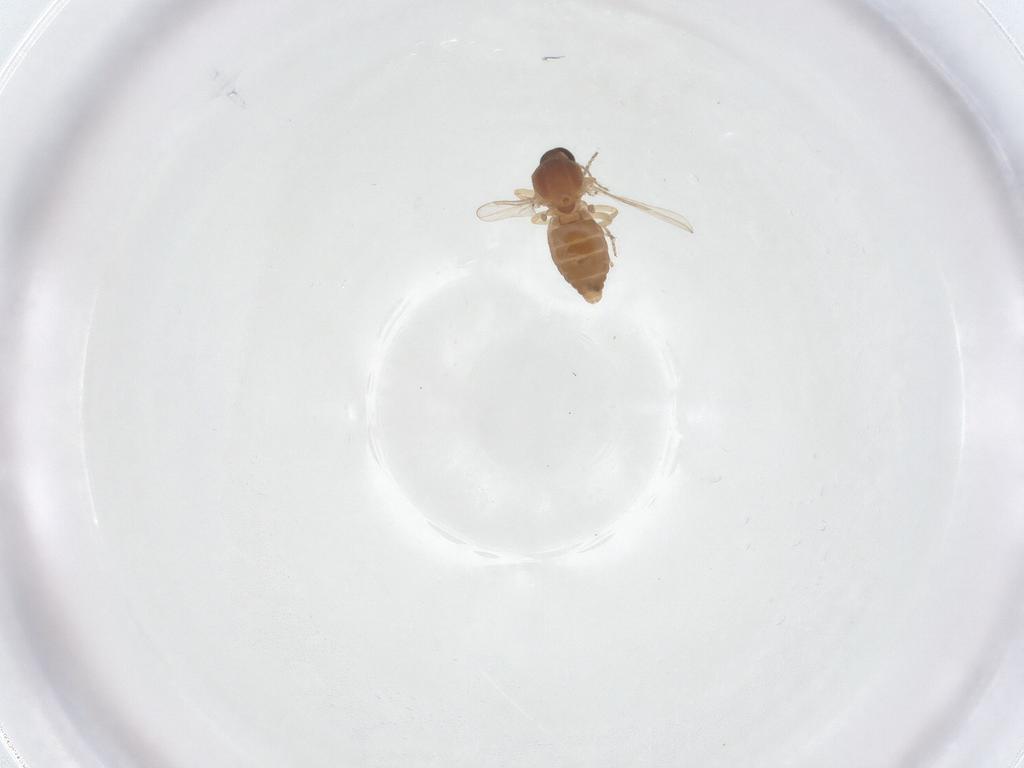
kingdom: Animalia
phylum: Arthropoda
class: Insecta
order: Diptera
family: Ceratopogonidae
